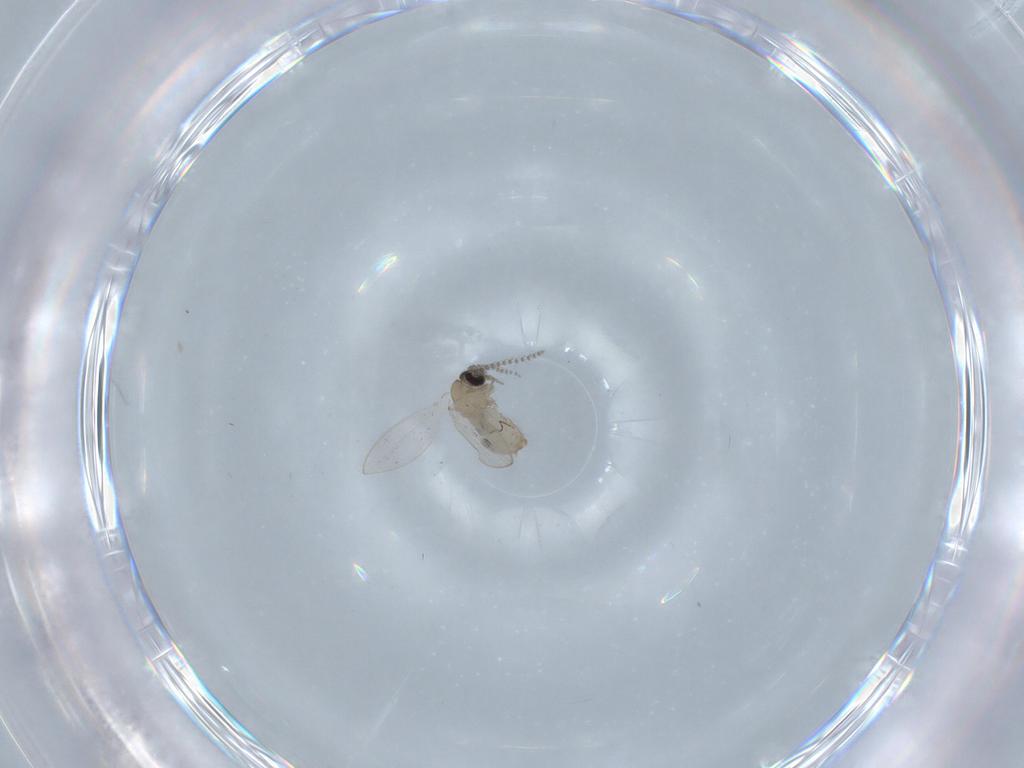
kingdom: Animalia
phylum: Arthropoda
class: Insecta
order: Diptera
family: Psychodidae
